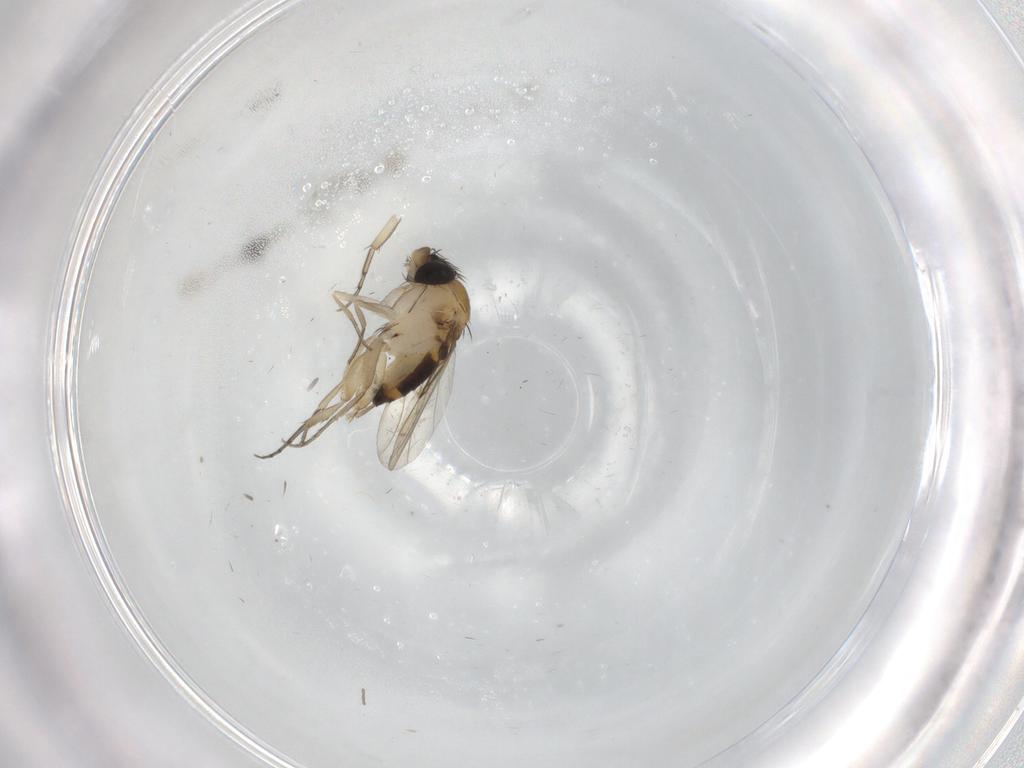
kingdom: Animalia
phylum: Arthropoda
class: Insecta
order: Diptera
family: Phoridae
